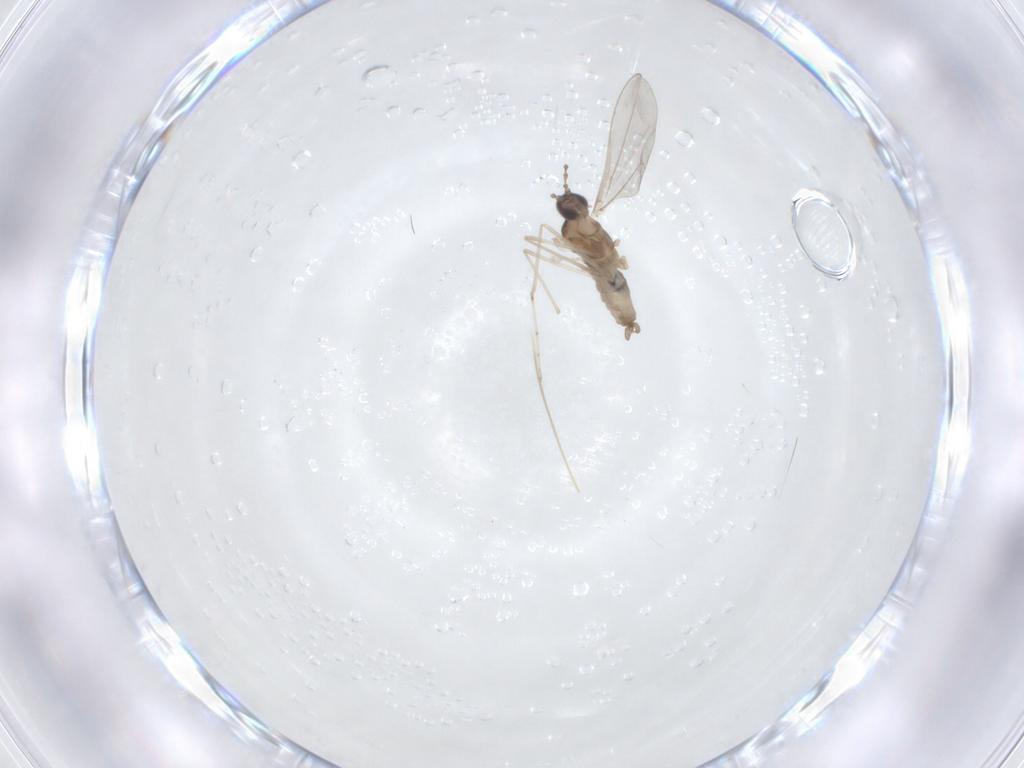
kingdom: Animalia
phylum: Arthropoda
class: Insecta
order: Diptera
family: Cecidomyiidae
